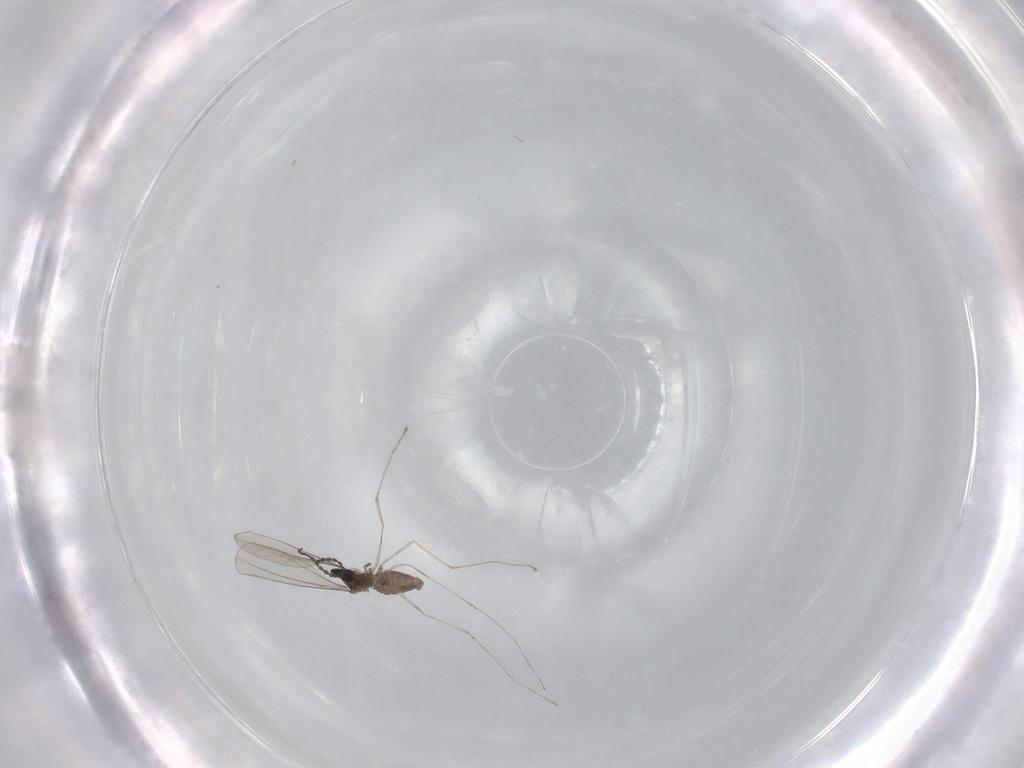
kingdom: Animalia
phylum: Arthropoda
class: Insecta
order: Diptera
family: Cecidomyiidae
